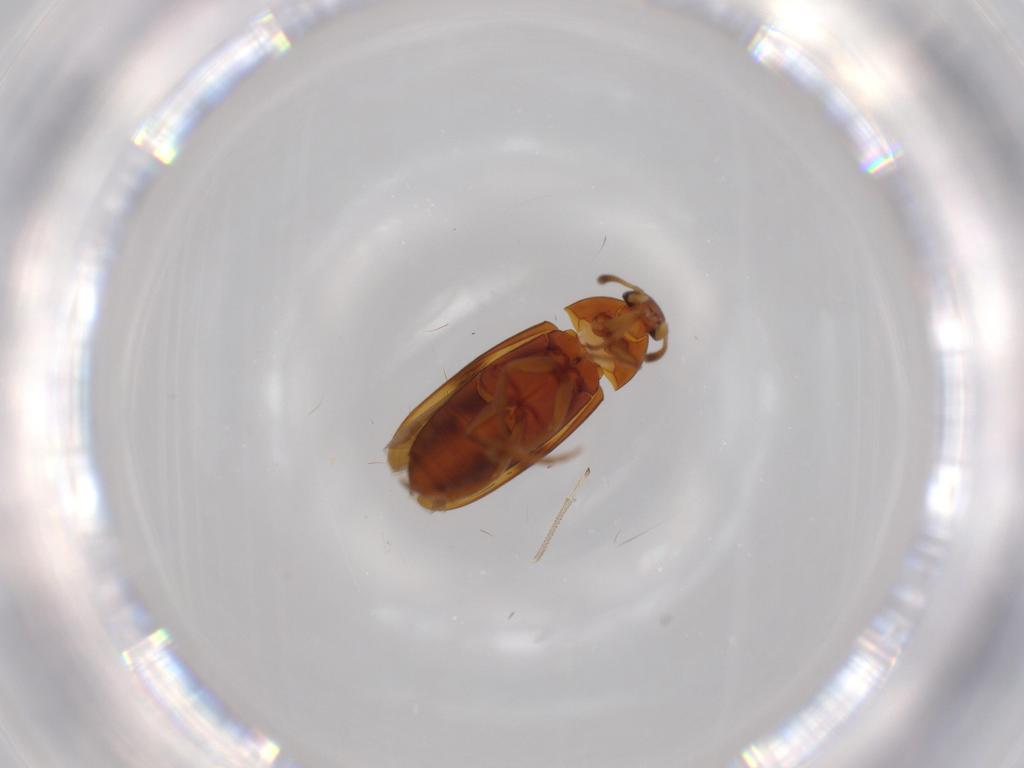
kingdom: Animalia
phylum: Arthropoda
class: Insecta
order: Coleoptera
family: Scraptiidae
